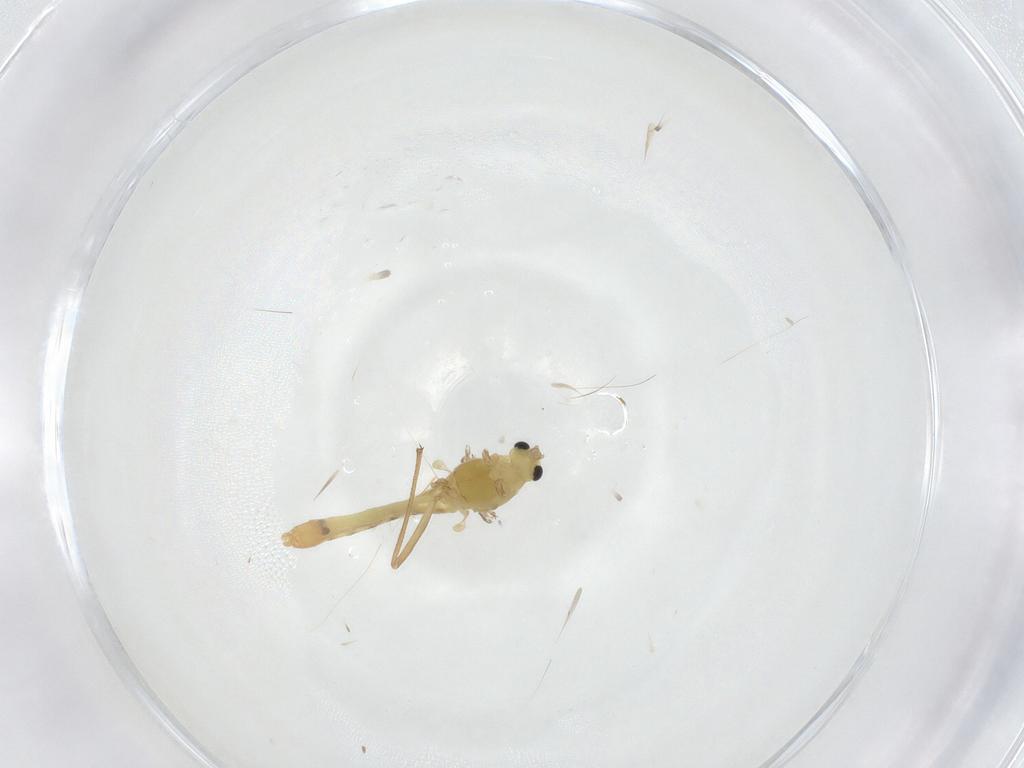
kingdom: Animalia
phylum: Arthropoda
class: Insecta
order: Diptera
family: Chironomidae
